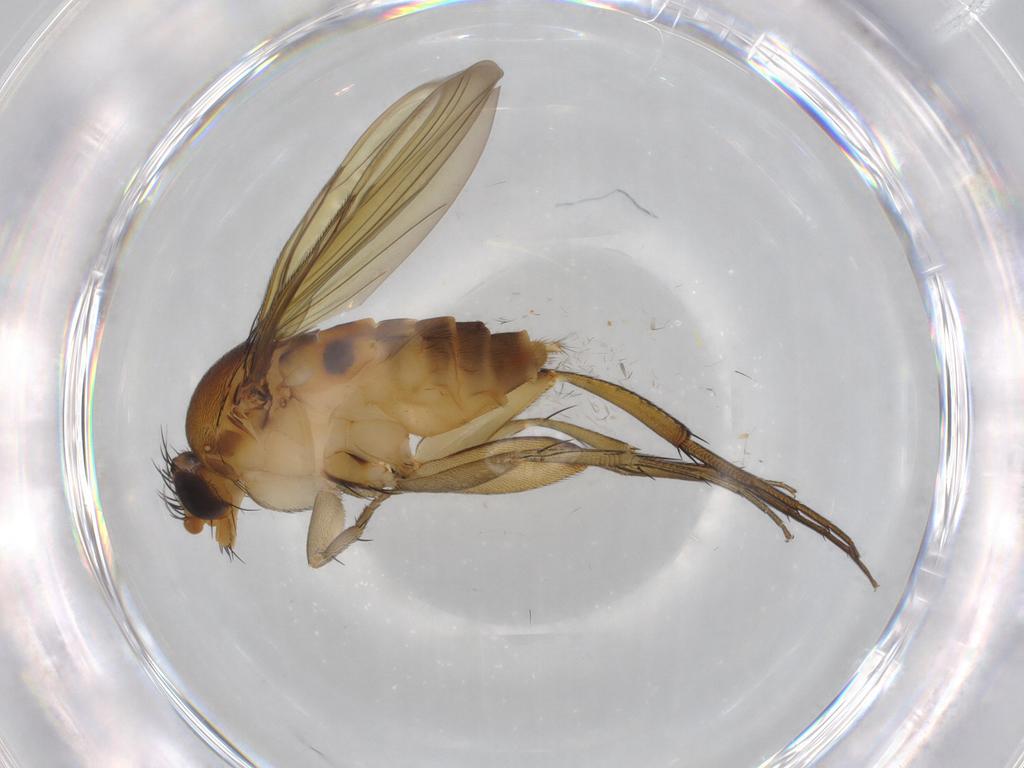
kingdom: Animalia
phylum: Arthropoda
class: Insecta
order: Diptera
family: Phoridae
